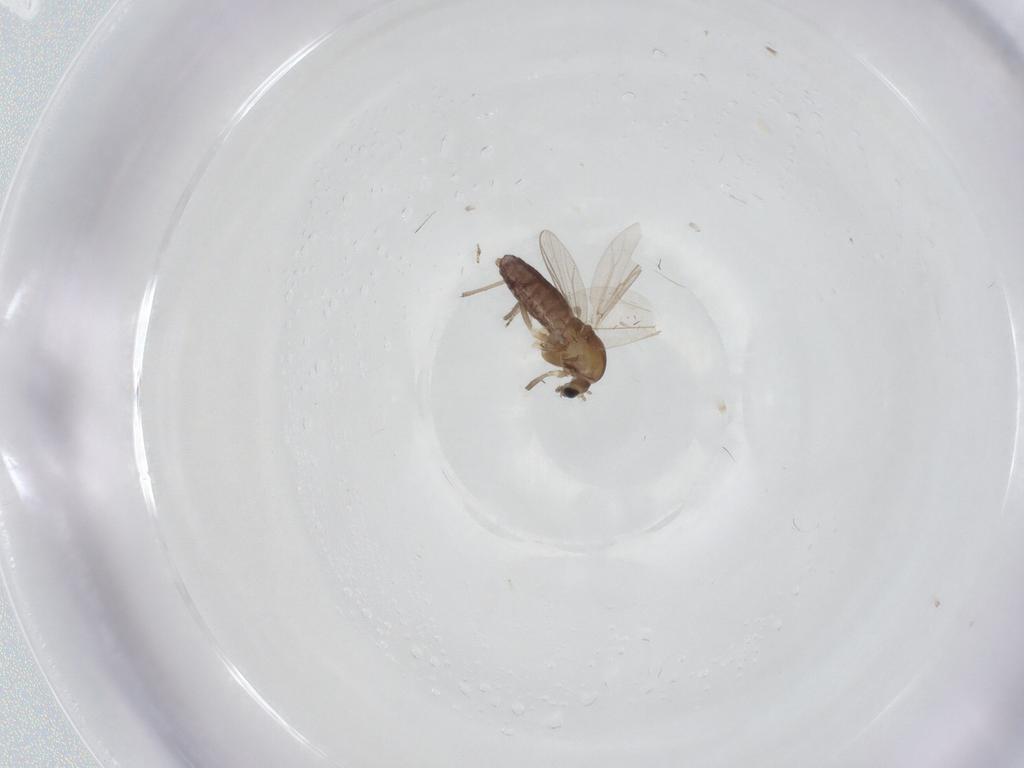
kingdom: Animalia
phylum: Arthropoda
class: Insecta
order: Diptera
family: Chironomidae
